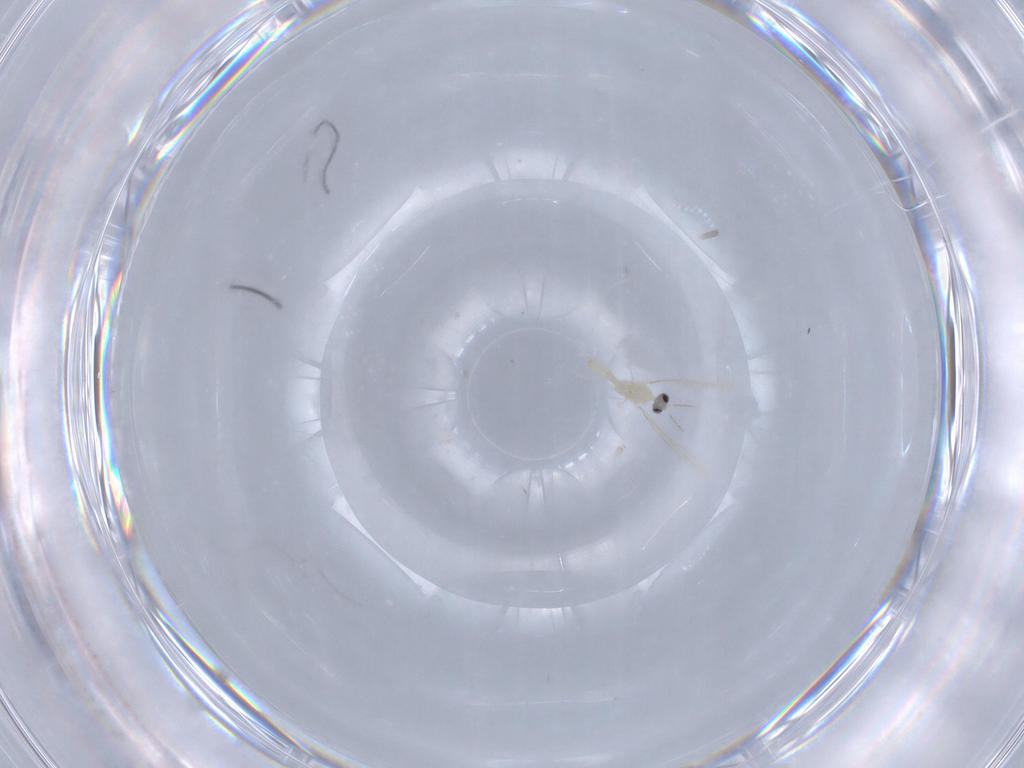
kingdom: Animalia
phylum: Arthropoda
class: Insecta
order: Diptera
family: Cecidomyiidae
